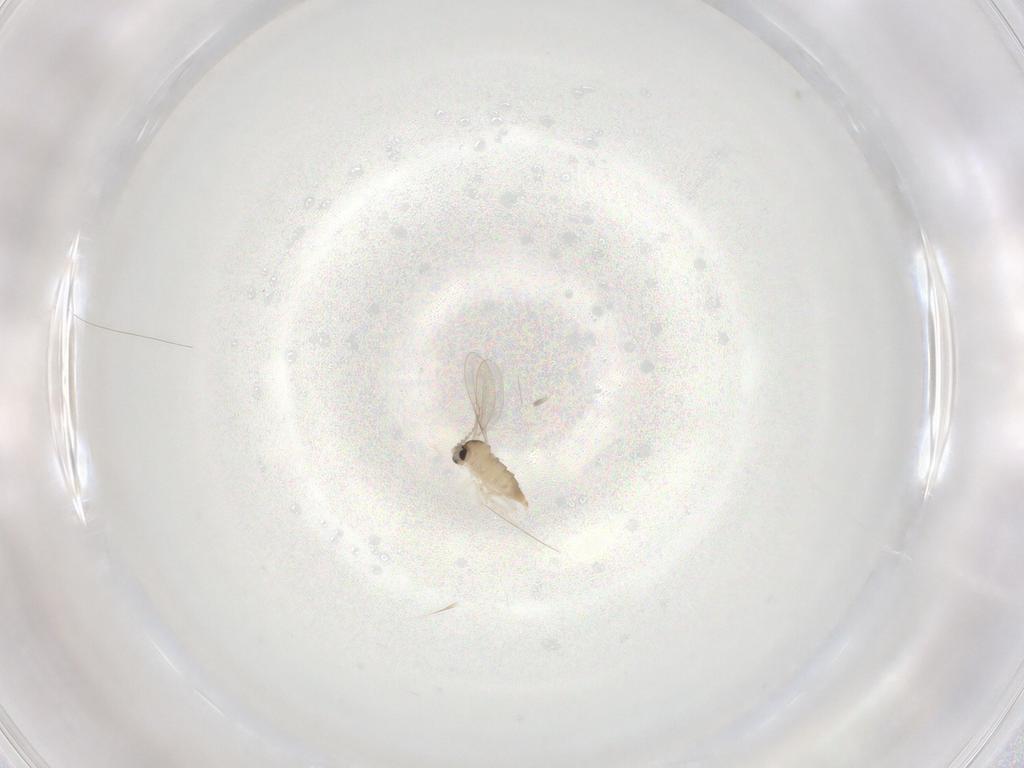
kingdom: Animalia
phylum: Arthropoda
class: Insecta
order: Diptera
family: Cecidomyiidae
